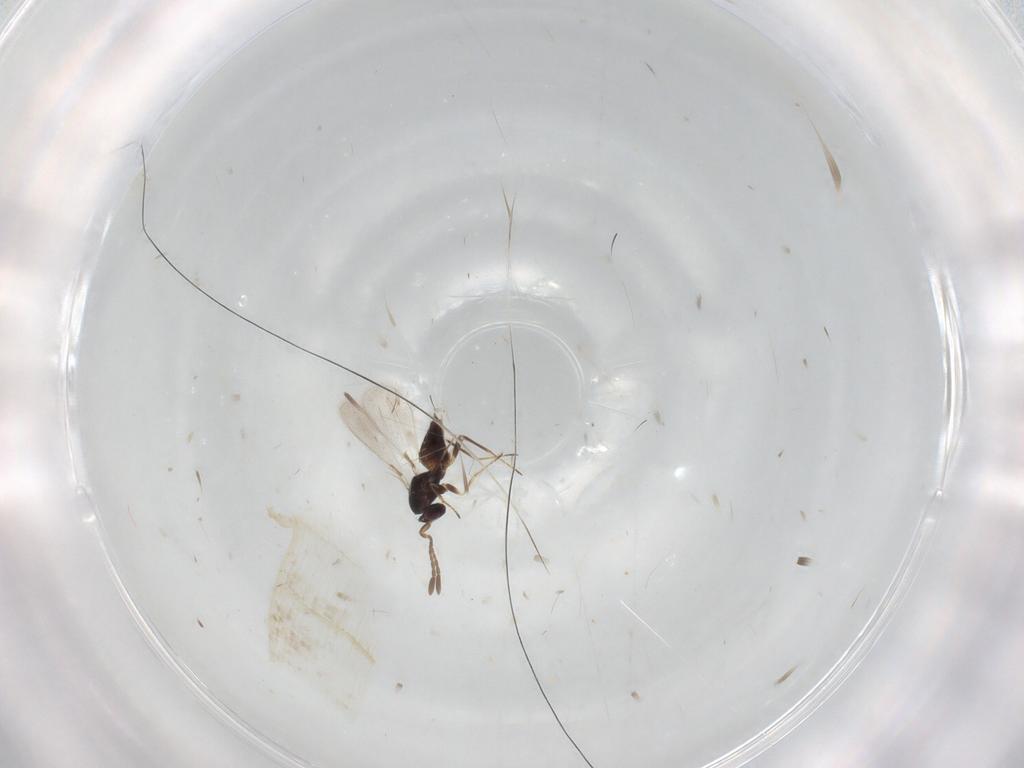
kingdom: Animalia
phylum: Arthropoda
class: Insecta
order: Hymenoptera
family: Mymaridae
